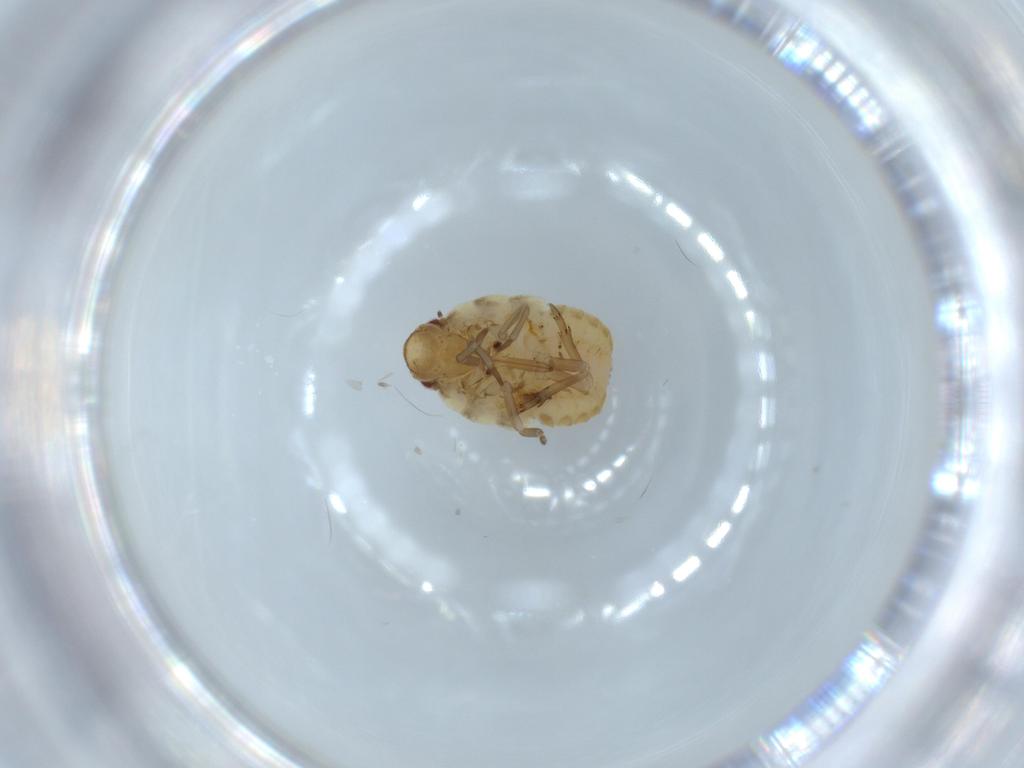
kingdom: Animalia
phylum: Arthropoda
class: Insecta
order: Hemiptera
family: Flatidae
